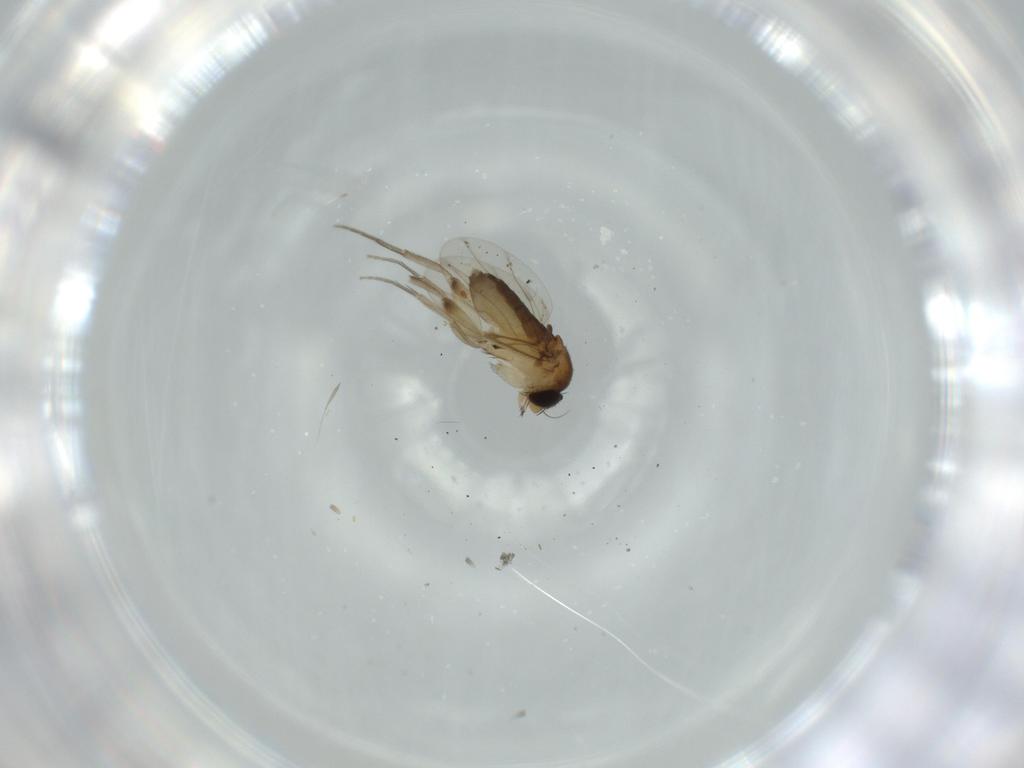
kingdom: Animalia
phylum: Arthropoda
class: Insecta
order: Diptera
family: Phoridae
